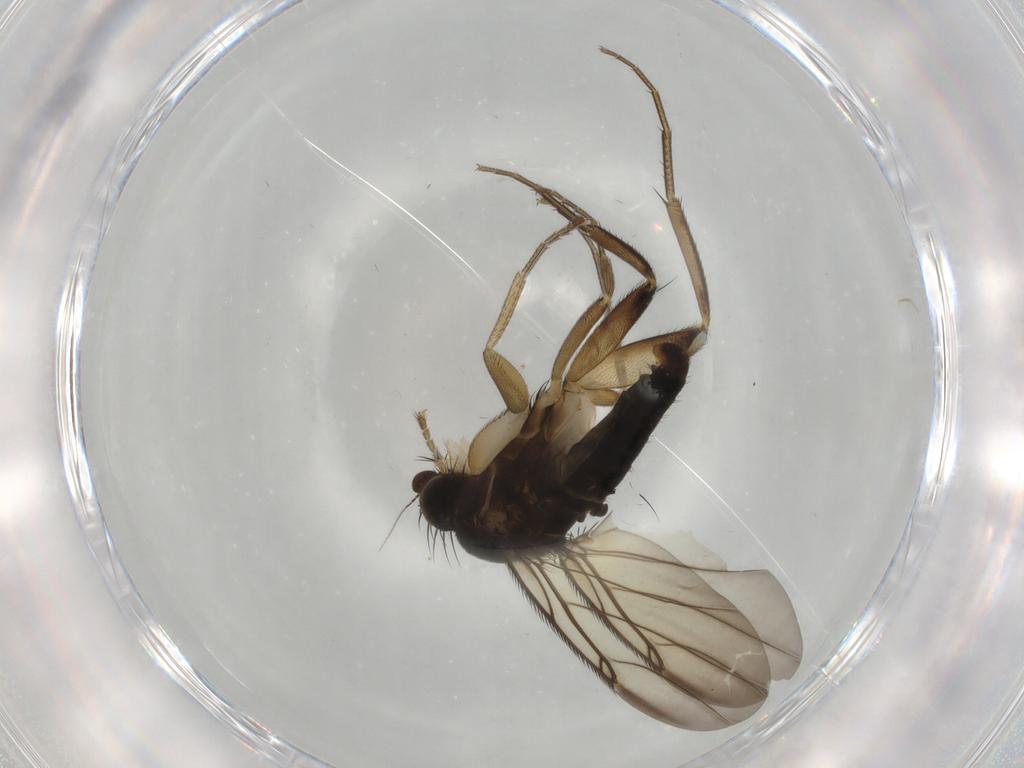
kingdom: Animalia
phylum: Arthropoda
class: Insecta
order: Diptera
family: Phoridae
